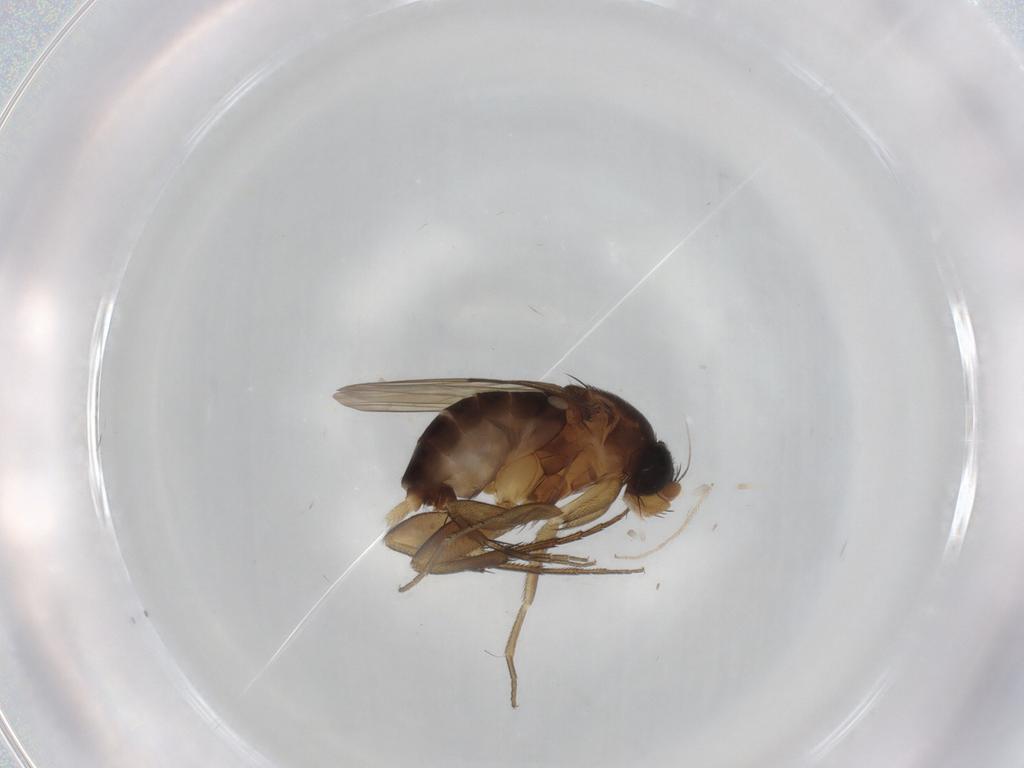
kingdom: Animalia
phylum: Arthropoda
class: Insecta
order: Diptera
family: Phoridae
